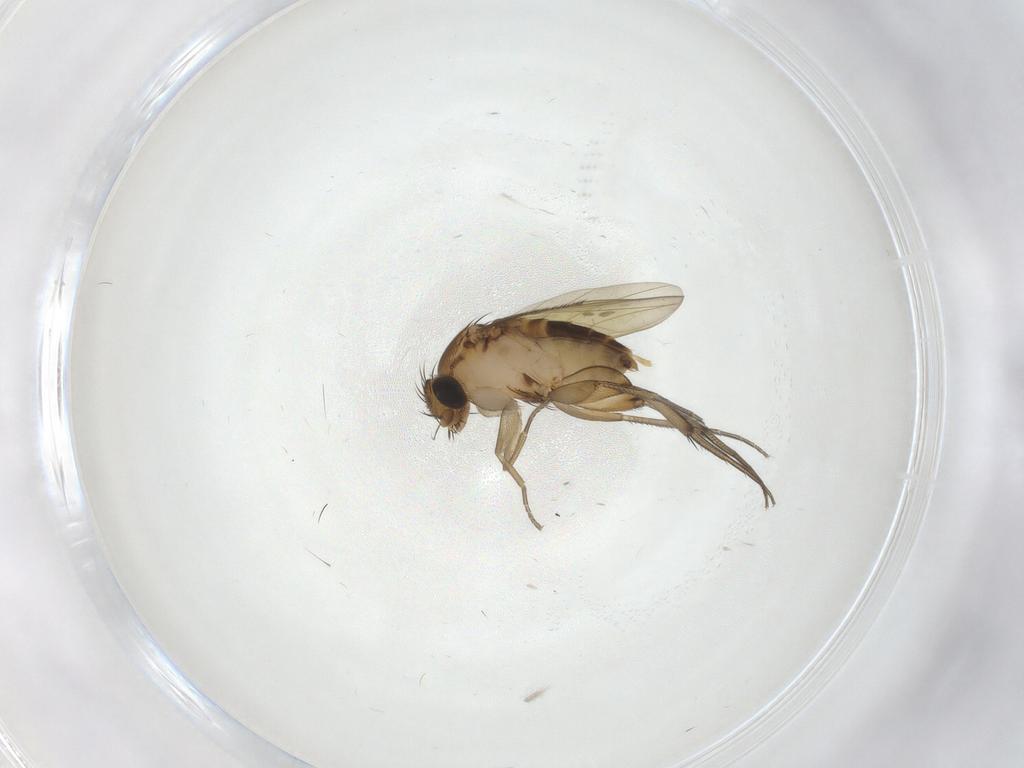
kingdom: Animalia
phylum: Arthropoda
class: Insecta
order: Diptera
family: Phoridae
